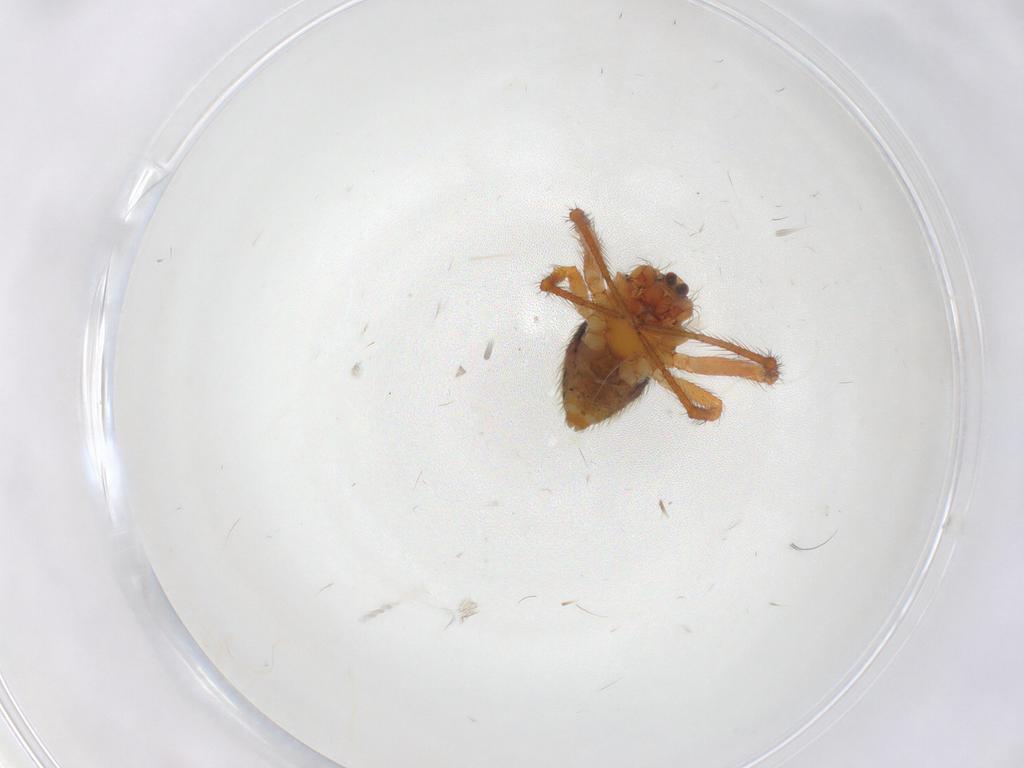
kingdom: Animalia
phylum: Arthropoda
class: Arachnida
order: Araneae
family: Theridiidae
